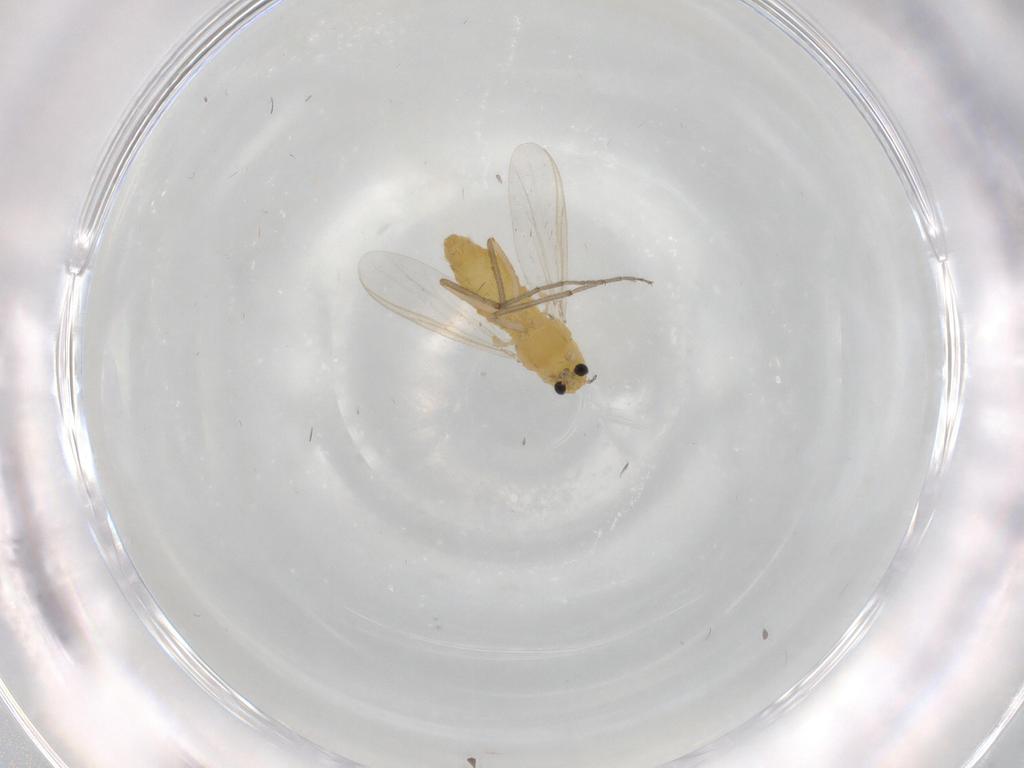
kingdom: Animalia
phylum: Arthropoda
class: Insecta
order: Diptera
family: Chironomidae
